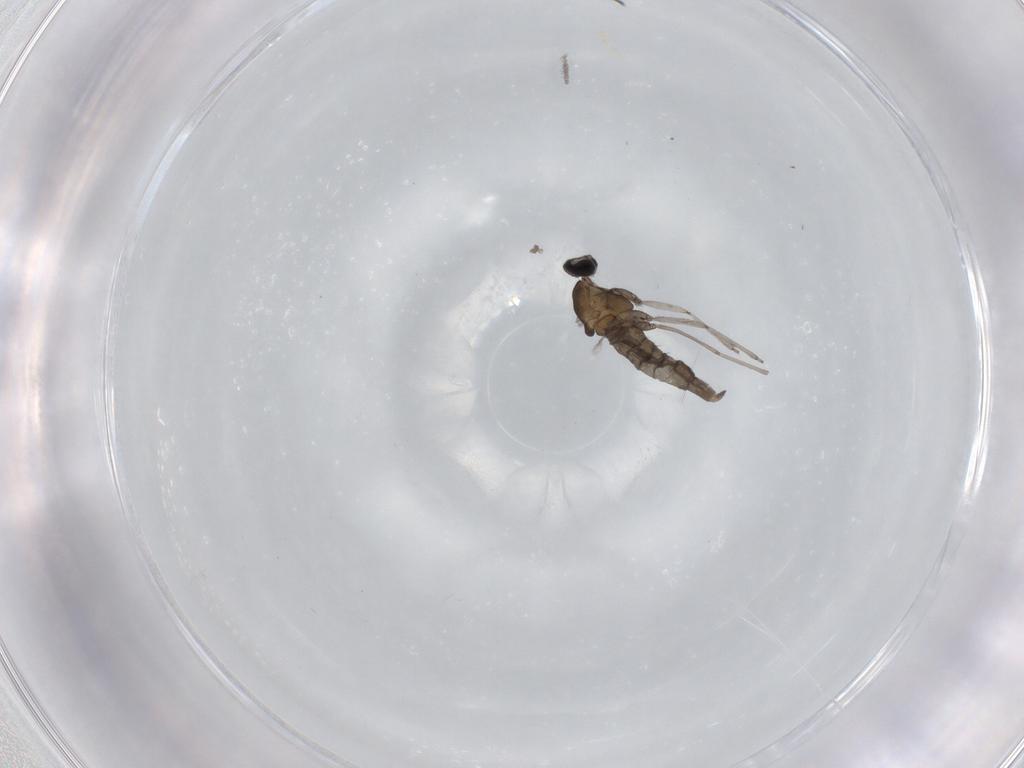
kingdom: Animalia
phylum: Arthropoda
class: Insecta
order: Diptera
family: Cecidomyiidae
